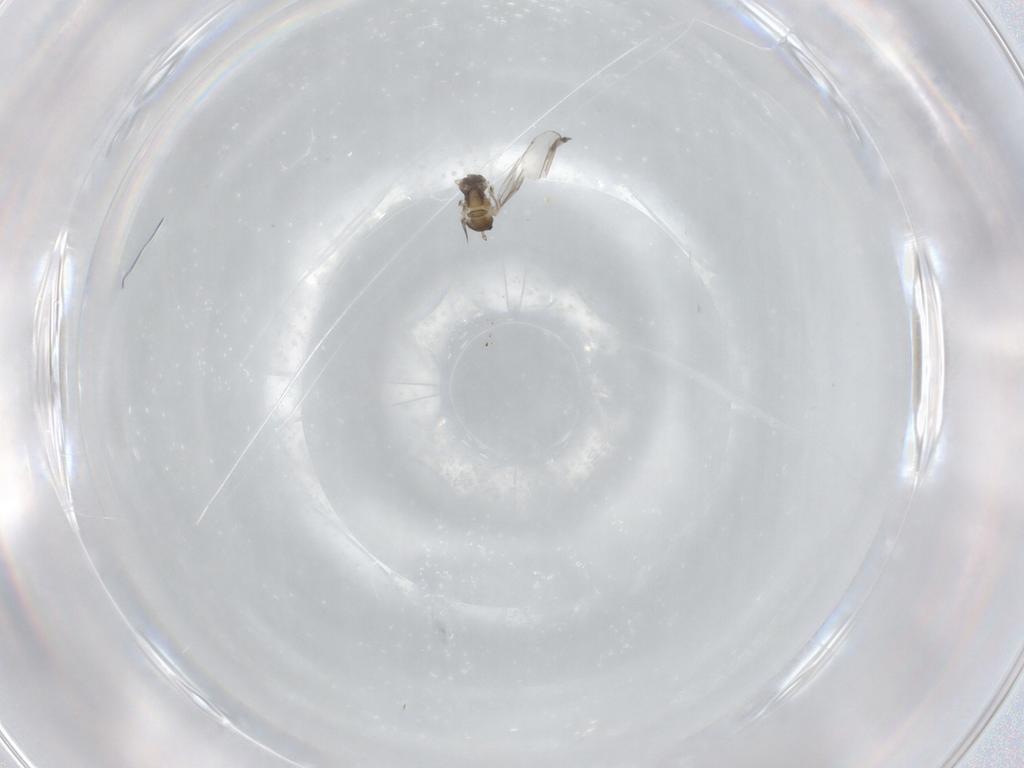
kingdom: Animalia
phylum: Arthropoda
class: Insecta
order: Diptera
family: Cecidomyiidae
